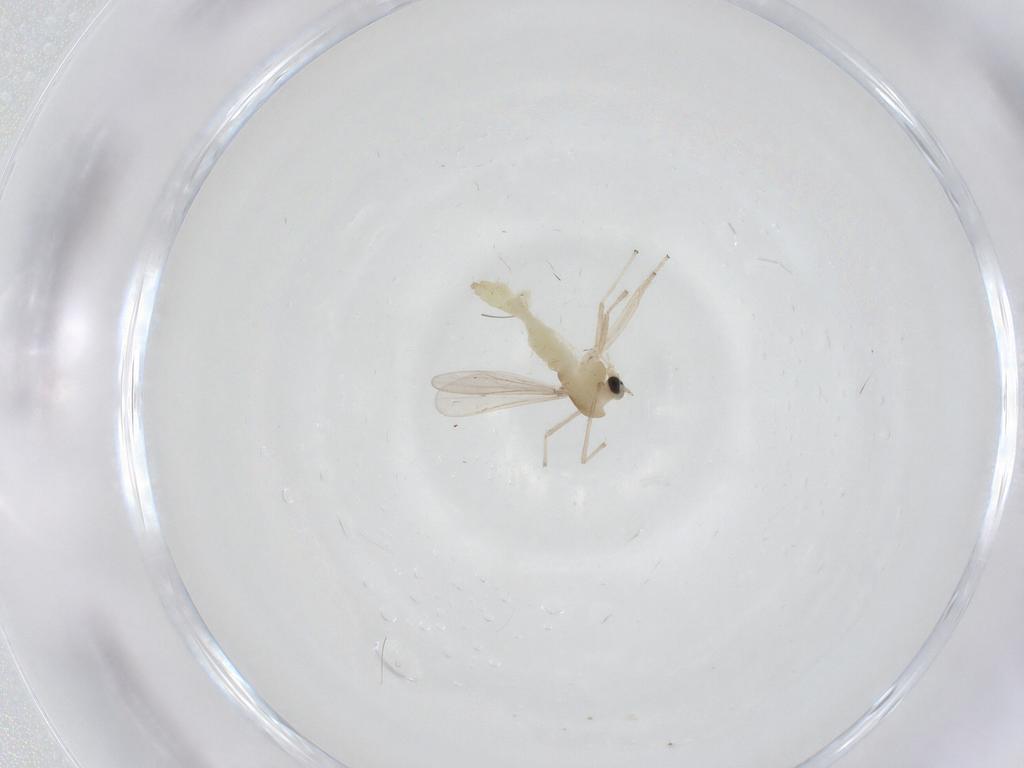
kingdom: Animalia
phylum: Arthropoda
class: Insecta
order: Diptera
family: Chironomidae
